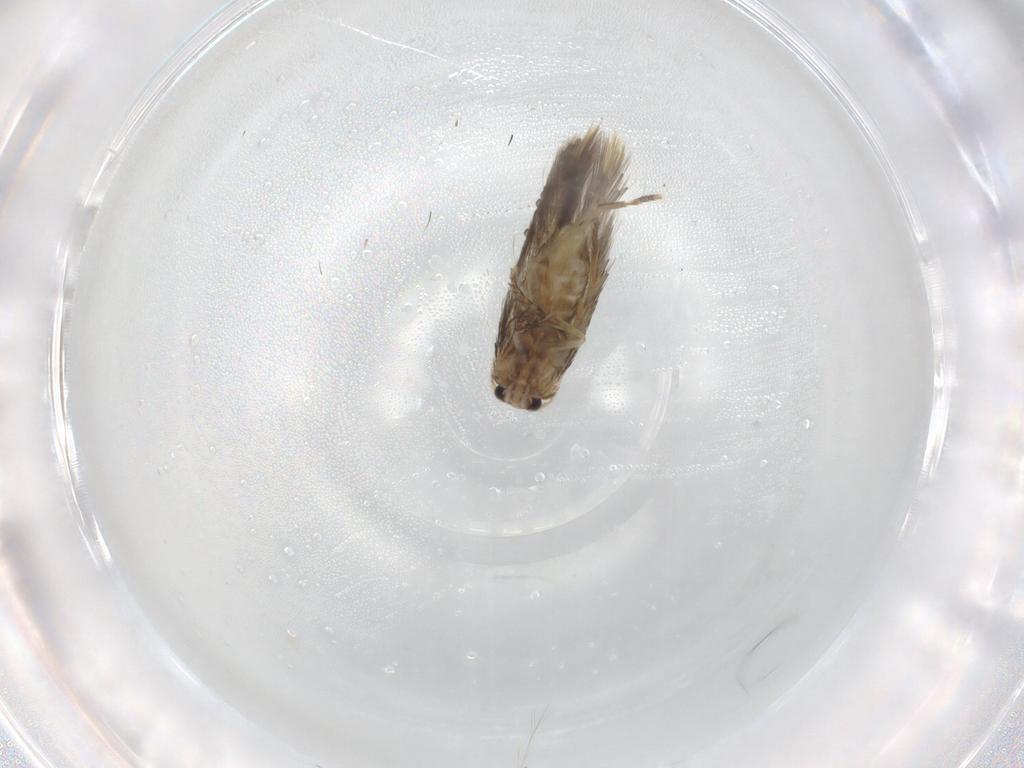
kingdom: Animalia
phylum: Arthropoda
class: Insecta
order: Lepidoptera
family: Nepticulidae
